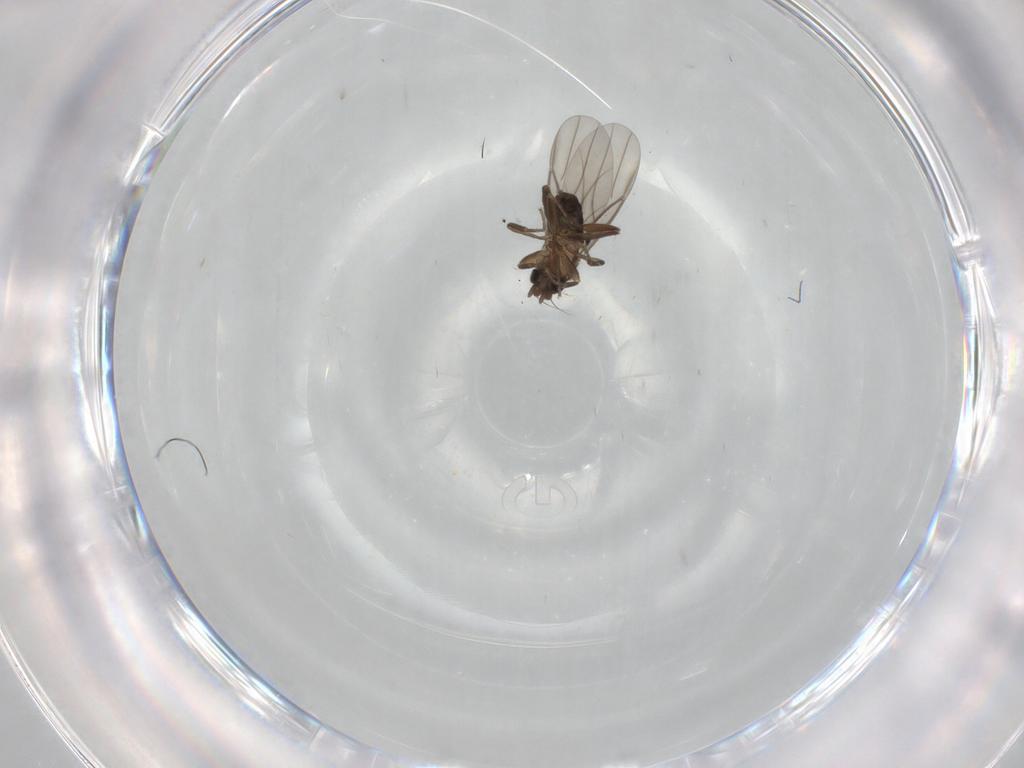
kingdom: Animalia
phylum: Arthropoda
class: Insecta
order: Diptera
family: Phoridae
